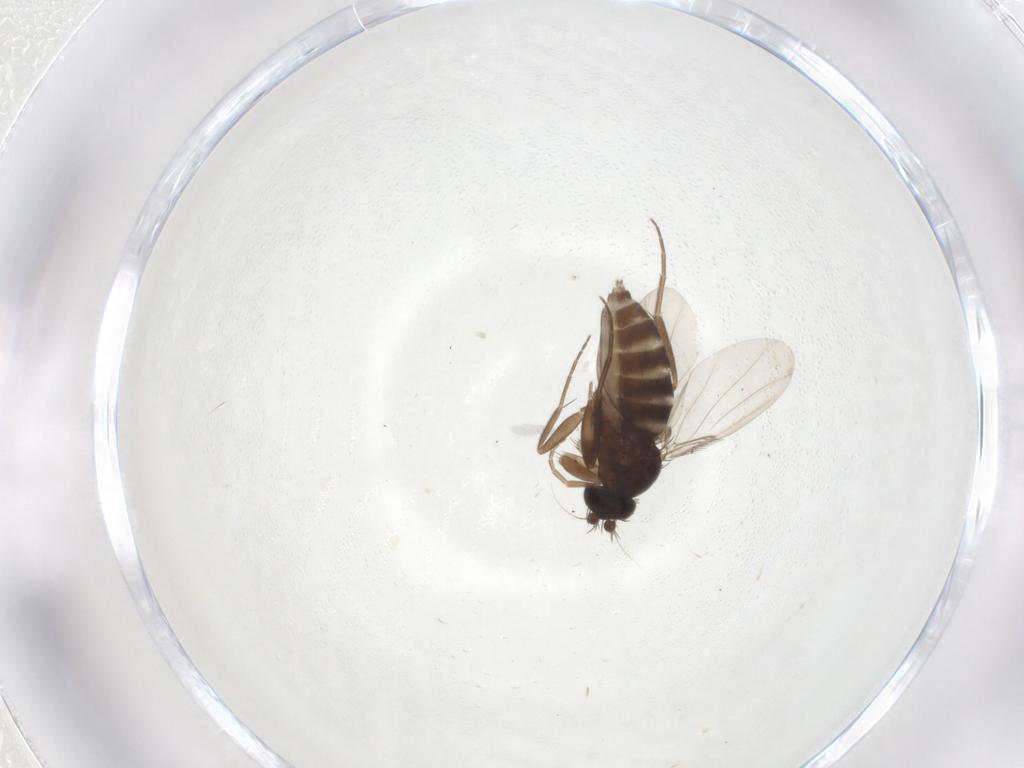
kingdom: Animalia
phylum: Arthropoda
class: Insecta
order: Diptera
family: Phoridae
